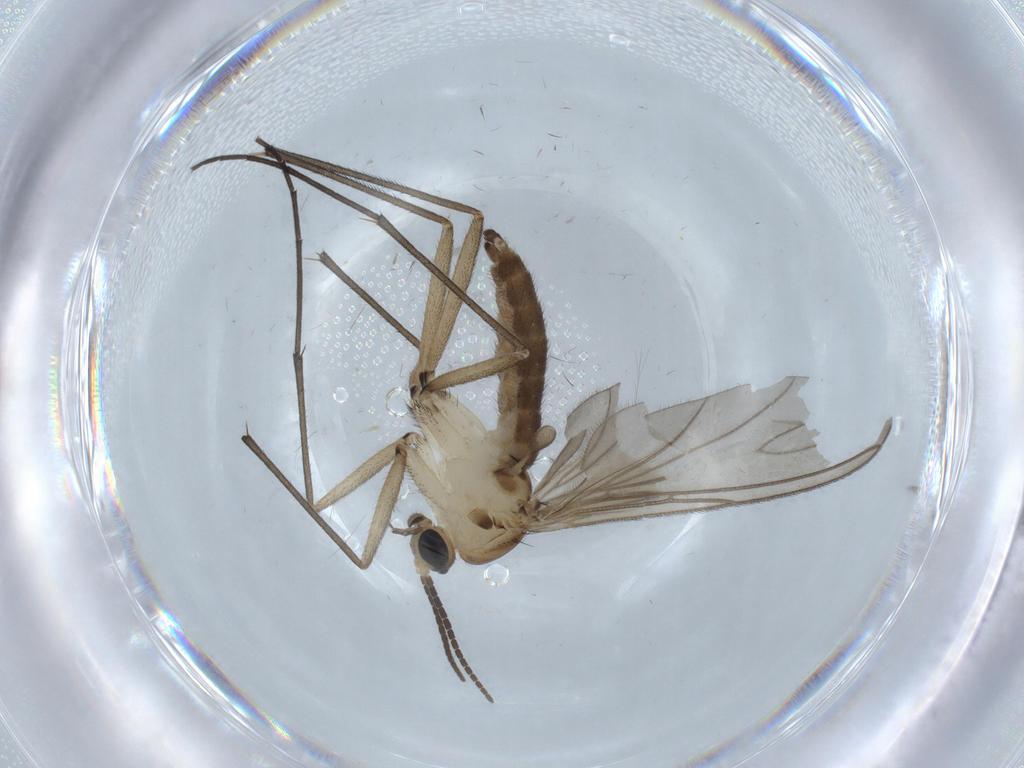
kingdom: Animalia
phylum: Arthropoda
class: Insecta
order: Diptera
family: Sciaridae
